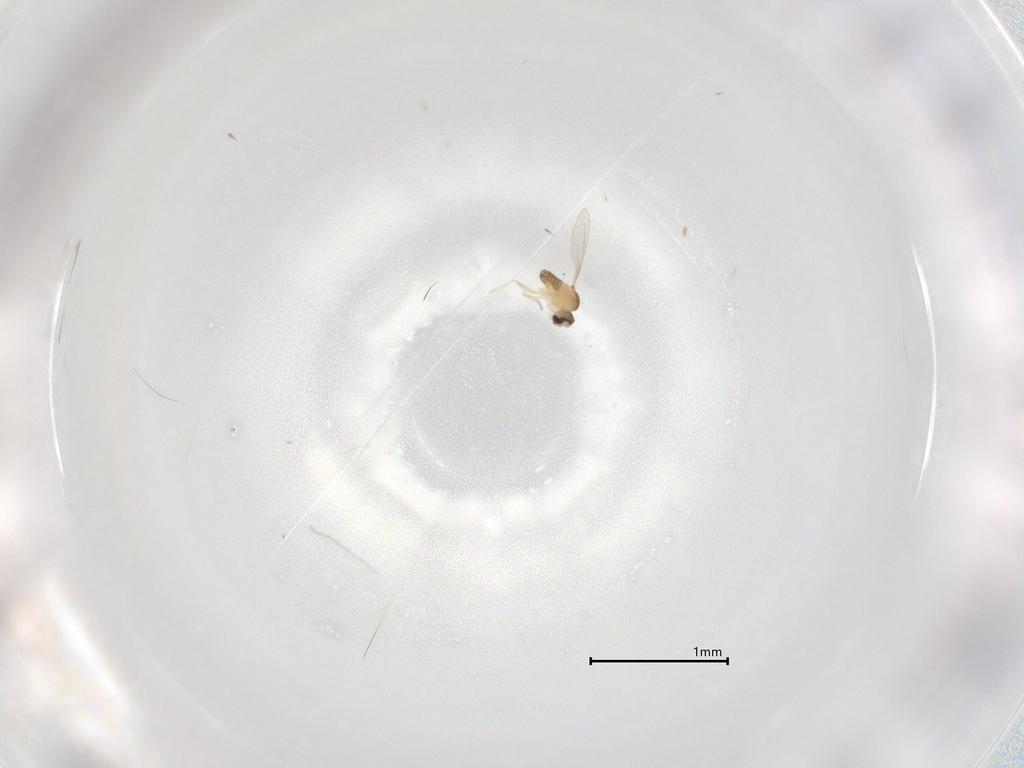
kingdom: Animalia
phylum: Arthropoda
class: Insecta
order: Diptera
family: Cecidomyiidae
